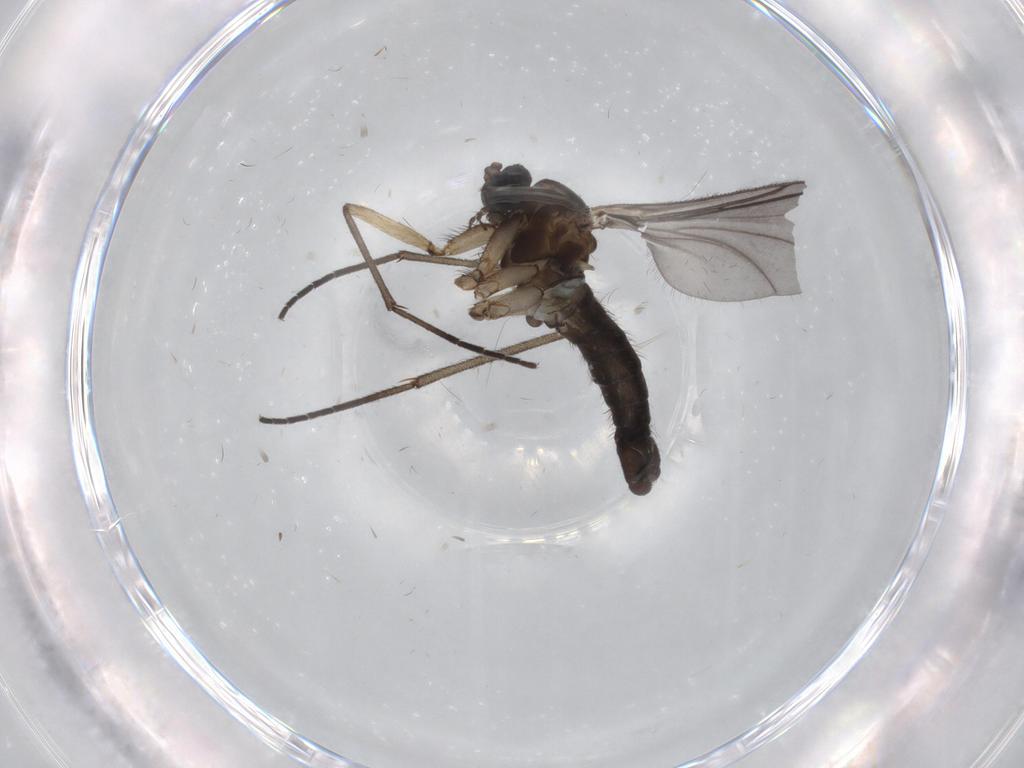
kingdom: Animalia
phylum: Arthropoda
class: Insecta
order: Diptera
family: Sciaridae
